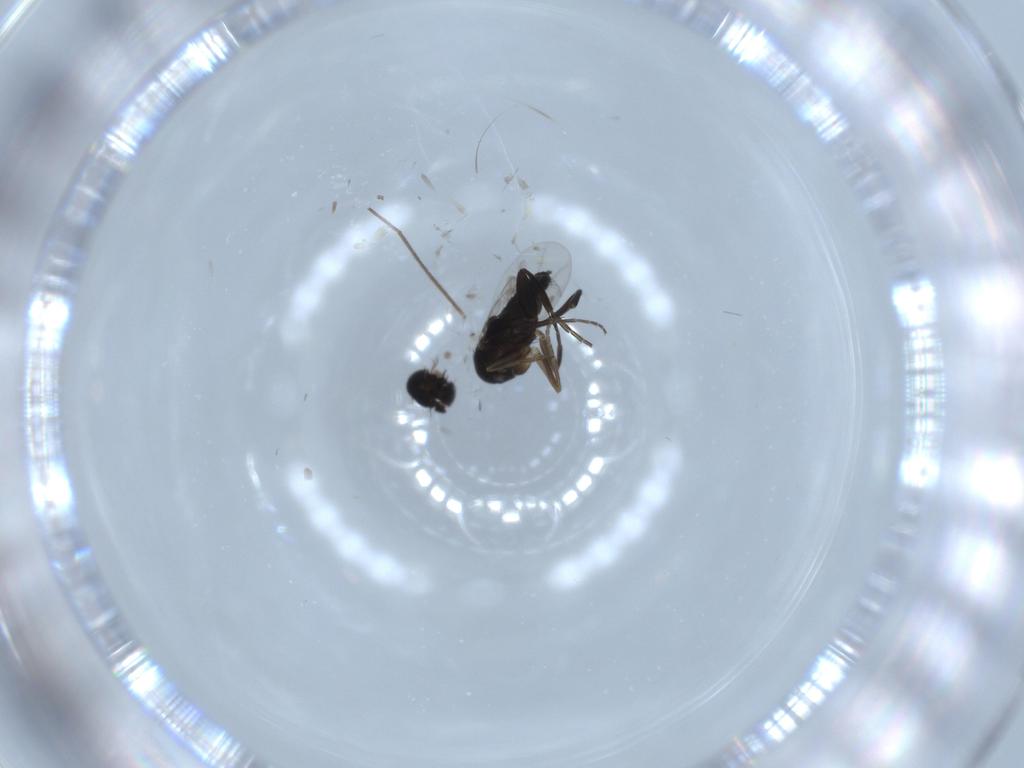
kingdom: Animalia
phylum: Arthropoda
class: Insecta
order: Diptera
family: Chironomidae
